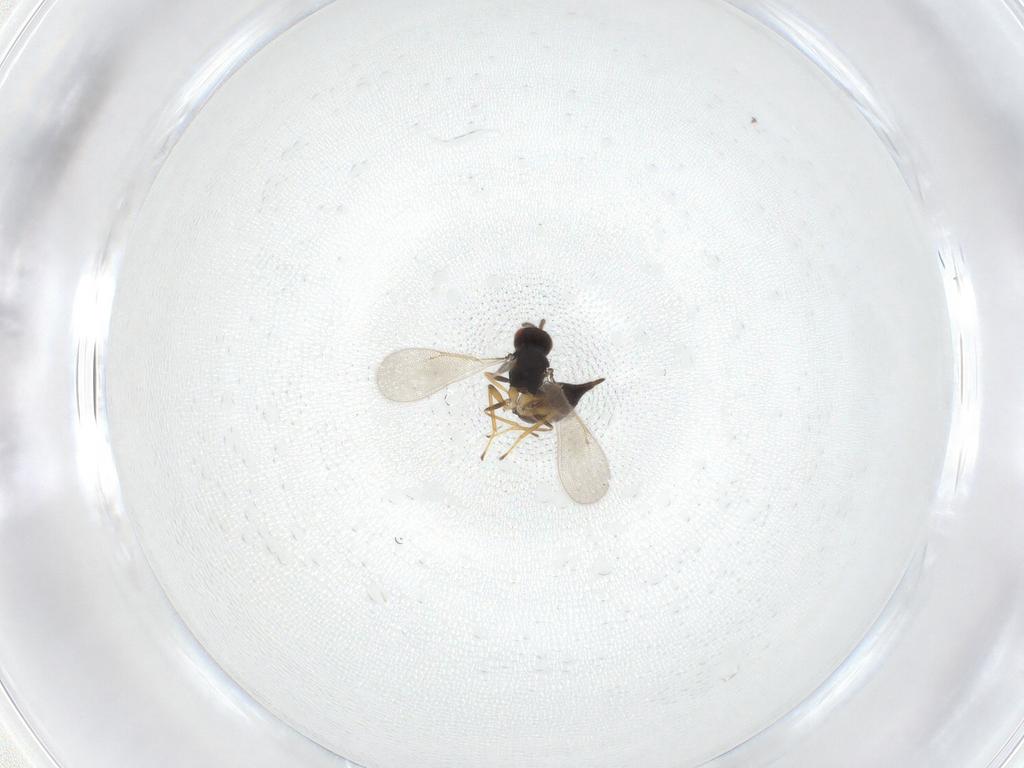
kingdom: Animalia
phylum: Arthropoda
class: Insecta
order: Hymenoptera
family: Eulophidae
